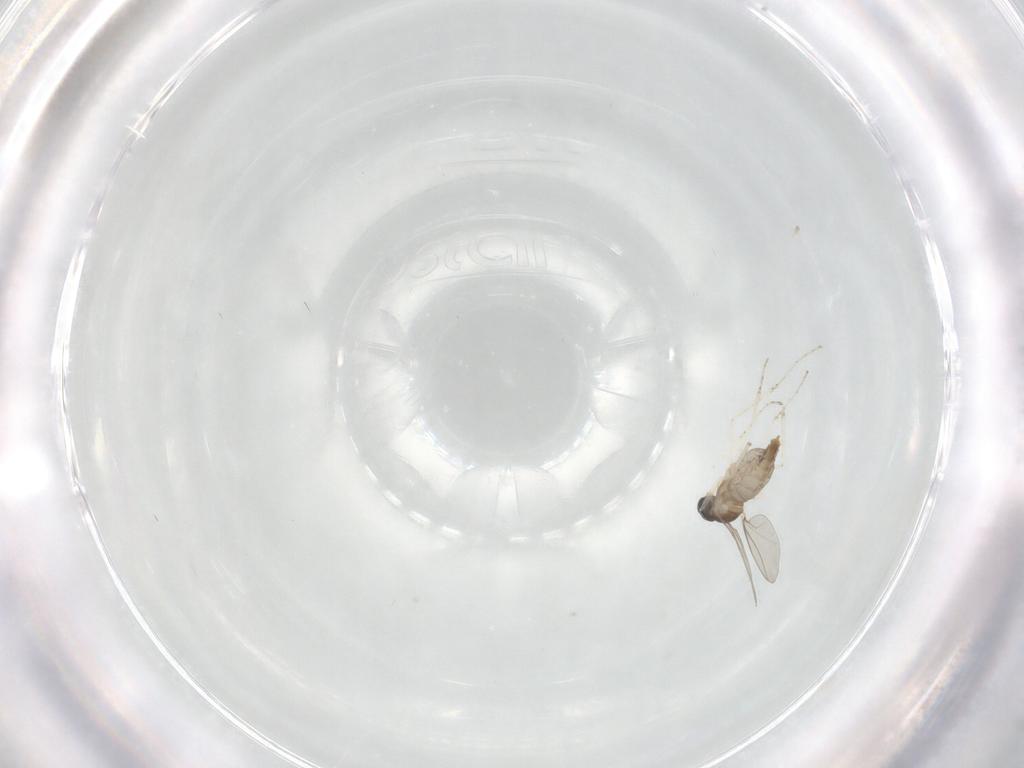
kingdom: Animalia
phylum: Arthropoda
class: Insecta
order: Diptera
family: Cecidomyiidae
